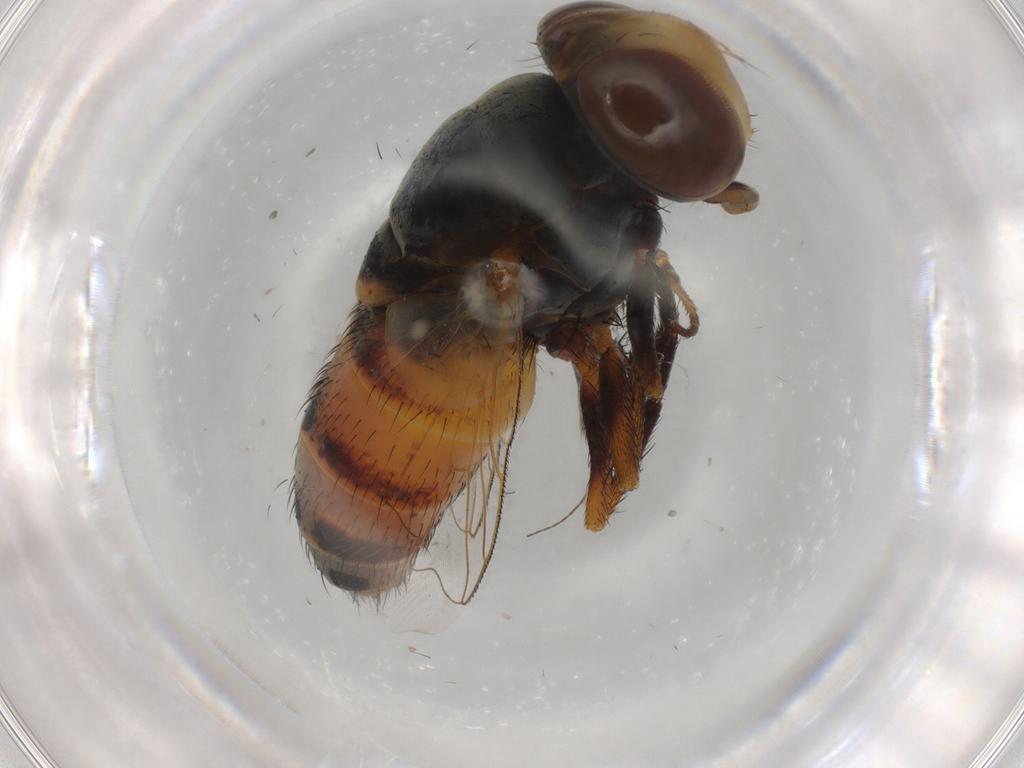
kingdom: Animalia
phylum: Arthropoda
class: Insecta
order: Diptera
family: Sarcophagidae
